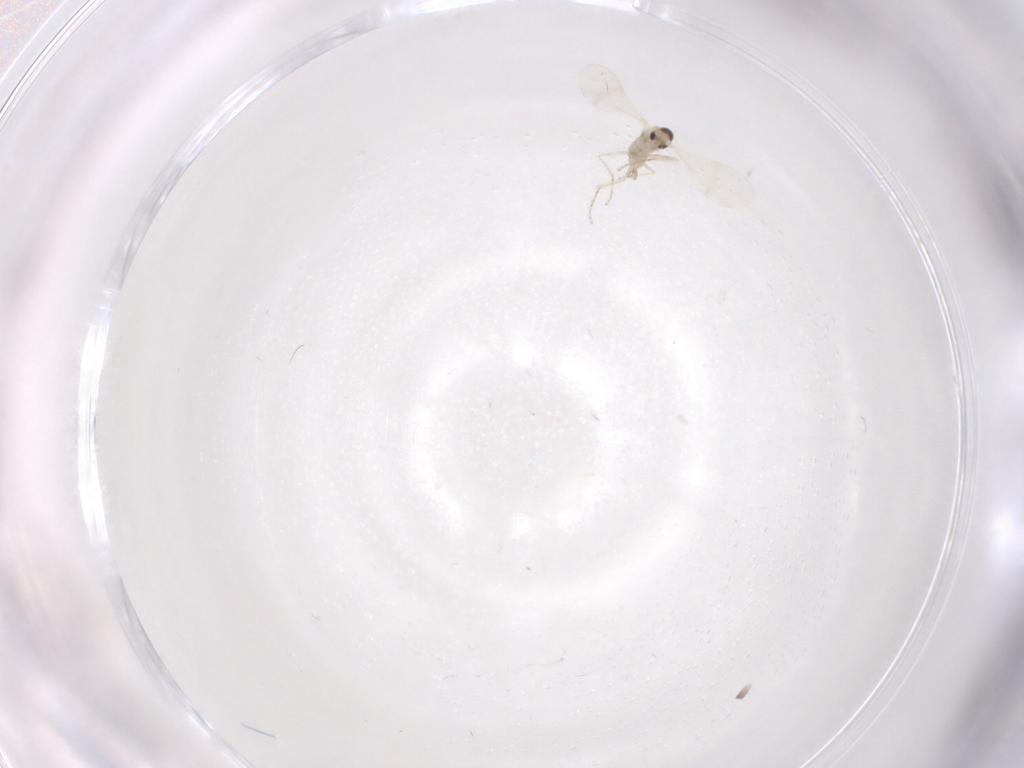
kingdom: Animalia
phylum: Arthropoda
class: Insecta
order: Diptera
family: Cecidomyiidae
